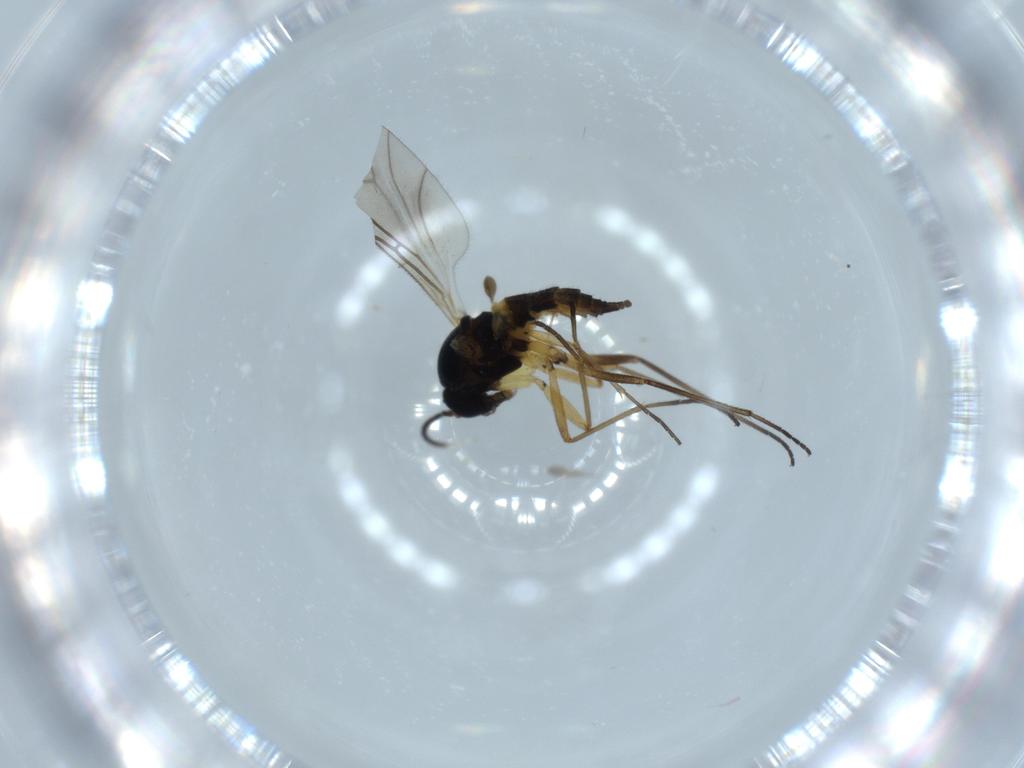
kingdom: Animalia
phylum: Arthropoda
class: Insecta
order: Diptera
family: Sciaridae
